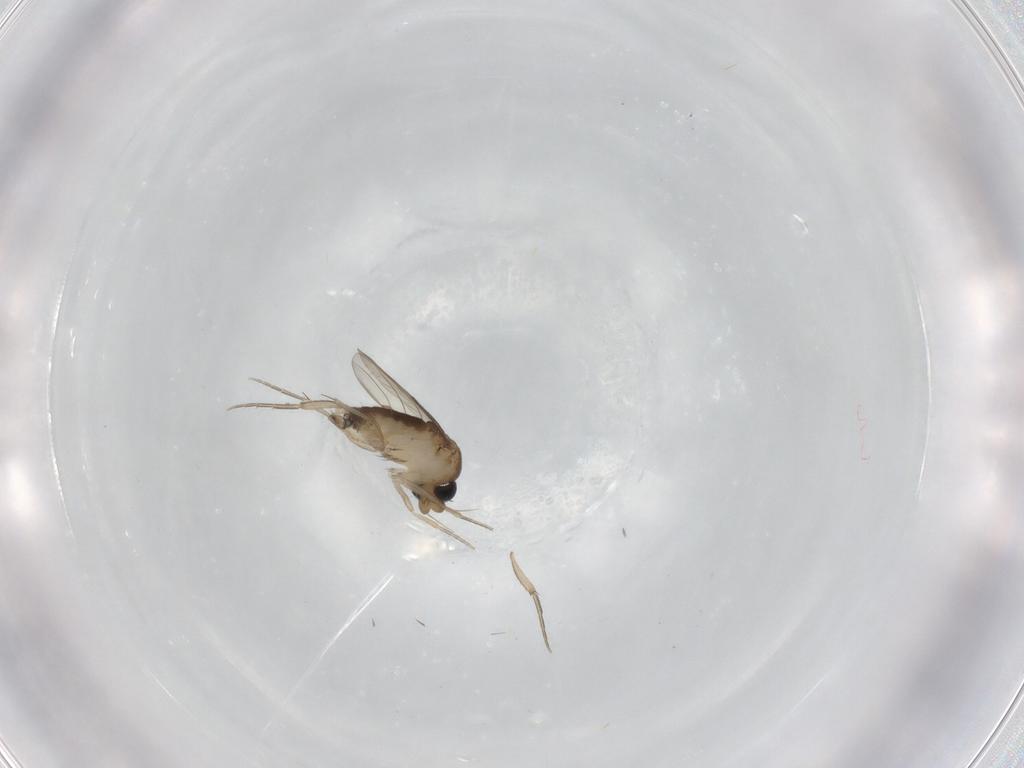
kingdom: Animalia
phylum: Arthropoda
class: Insecta
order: Diptera
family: Phoridae
